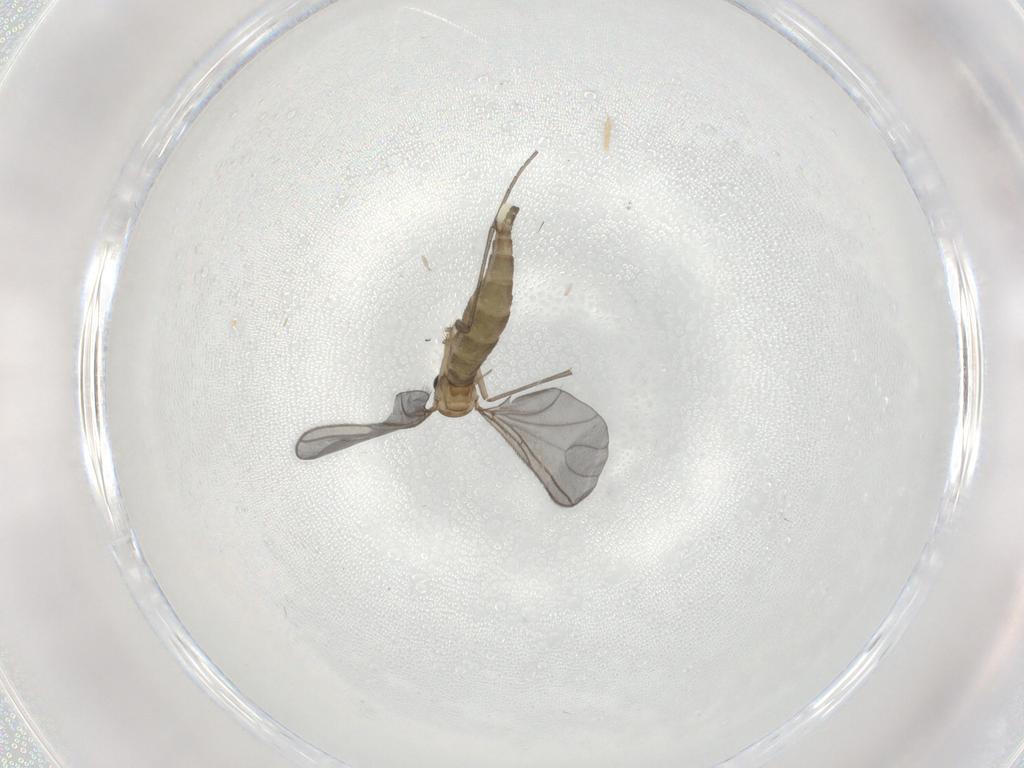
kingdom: Animalia
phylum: Arthropoda
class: Insecta
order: Diptera
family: Sciaridae
